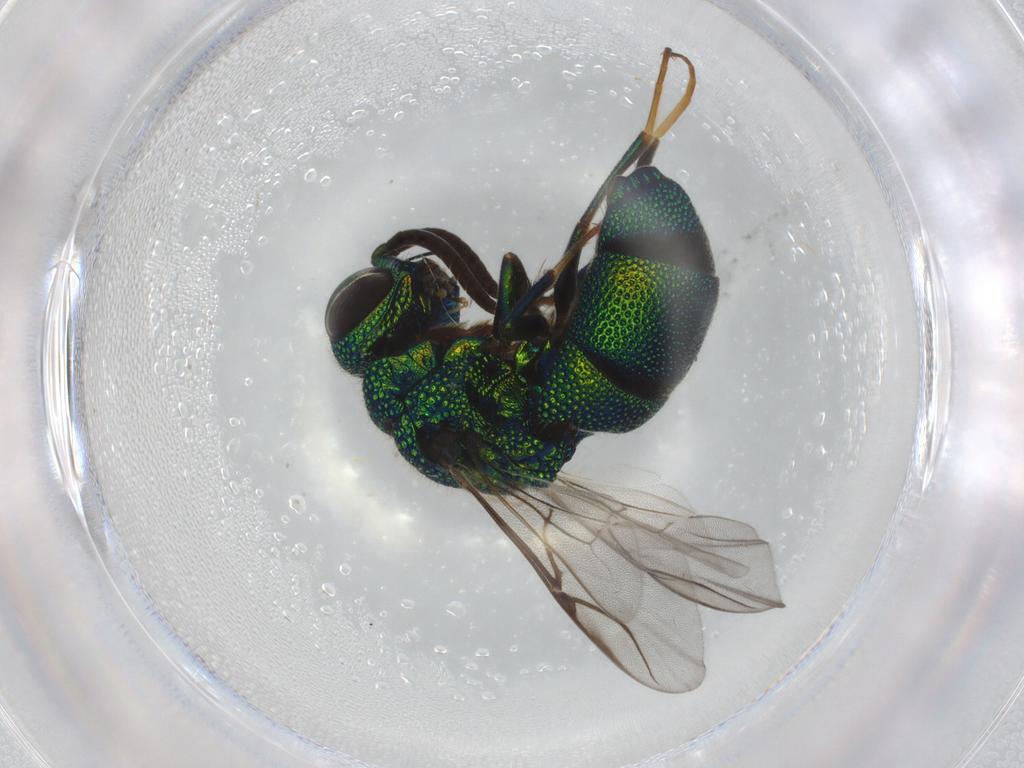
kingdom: Animalia
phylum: Arthropoda
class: Insecta
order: Hymenoptera
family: Chrysididae
